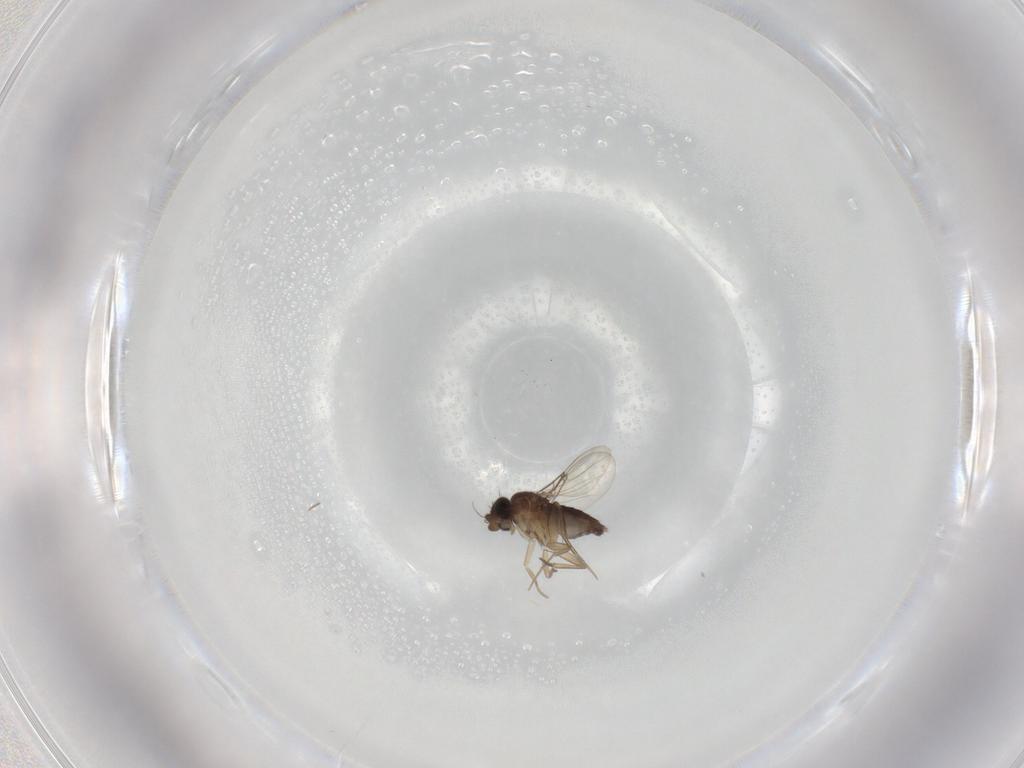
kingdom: Animalia
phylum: Arthropoda
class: Insecta
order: Diptera
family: Phoridae
